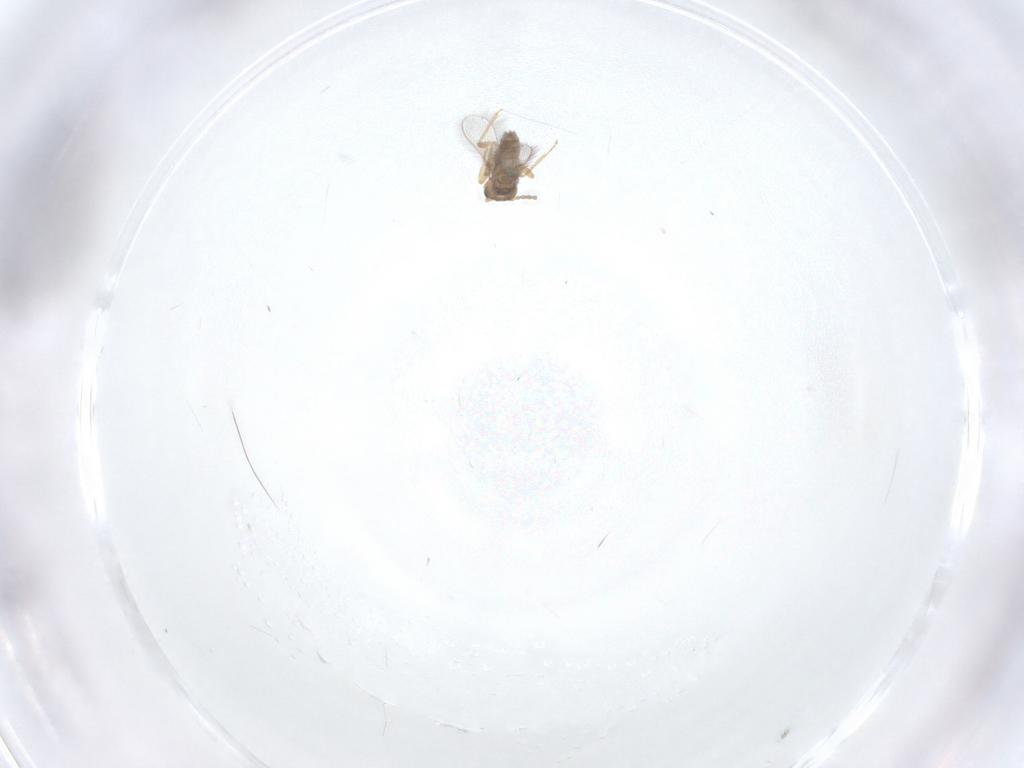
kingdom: Animalia
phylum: Arthropoda
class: Insecta
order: Hymenoptera
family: Mymaridae
